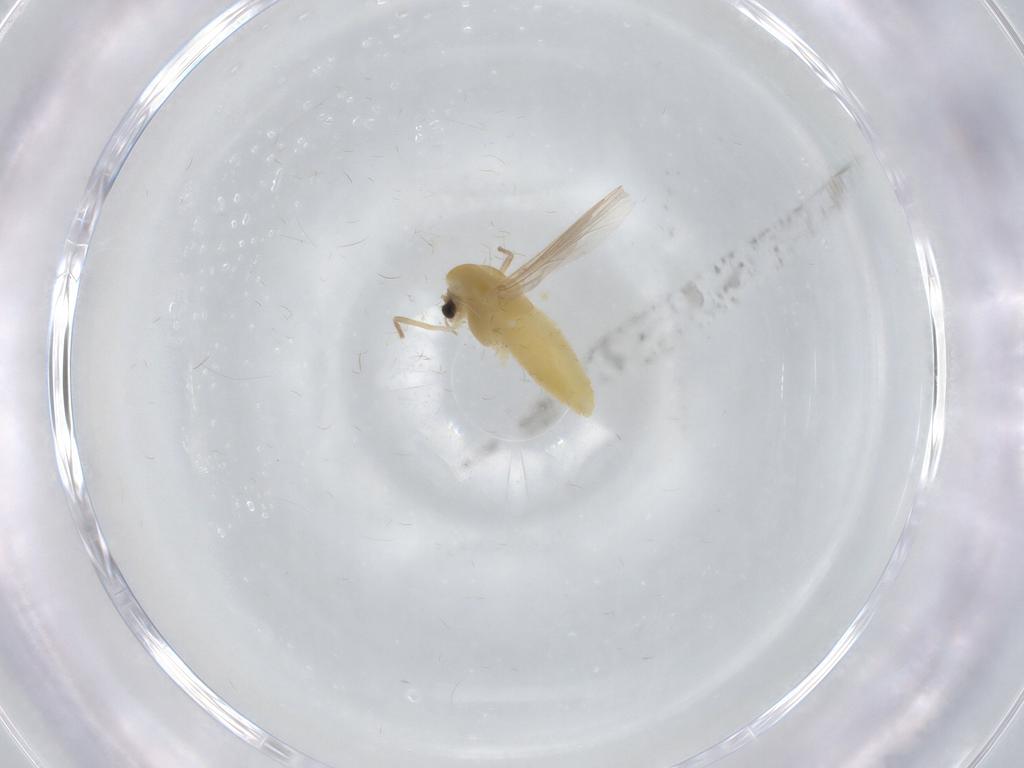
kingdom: Animalia
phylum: Arthropoda
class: Insecta
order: Diptera
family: Chironomidae
